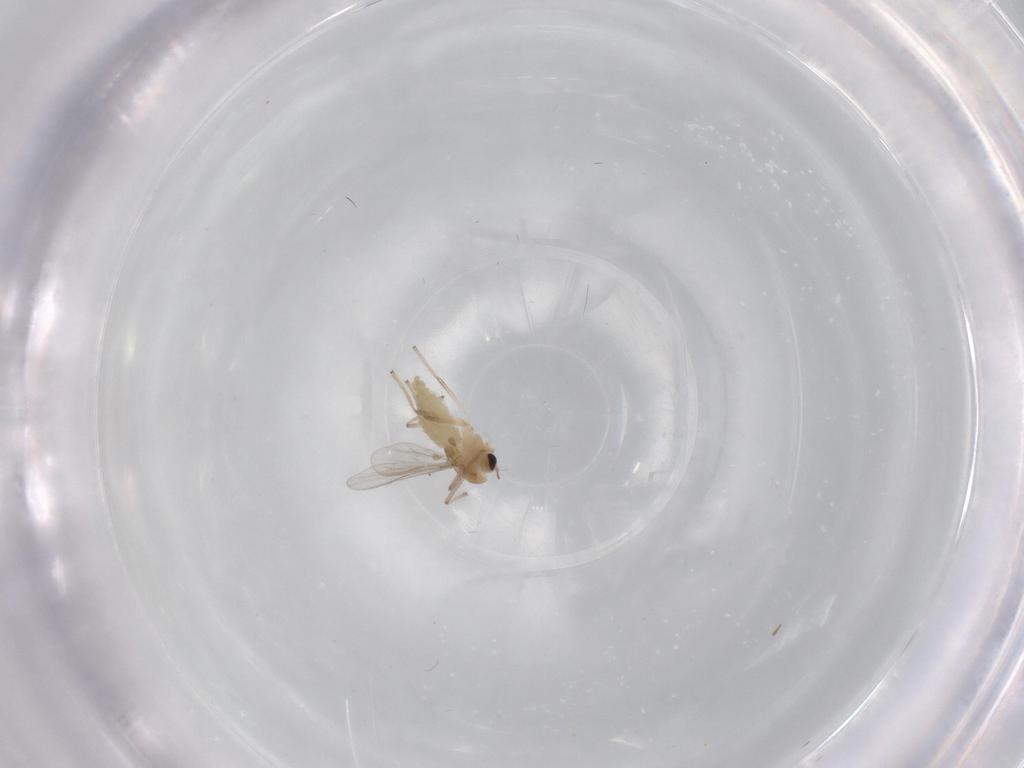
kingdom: Animalia
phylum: Arthropoda
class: Insecta
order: Diptera
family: Chironomidae
